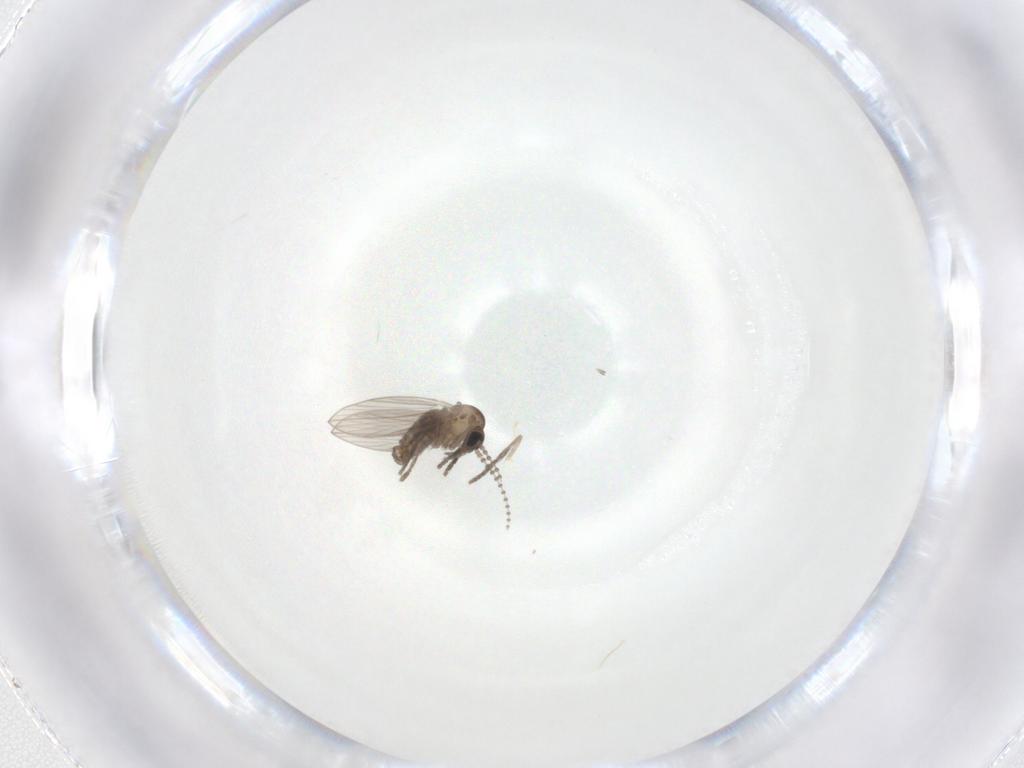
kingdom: Animalia
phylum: Arthropoda
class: Insecta
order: Diptera
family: Psychodidae
